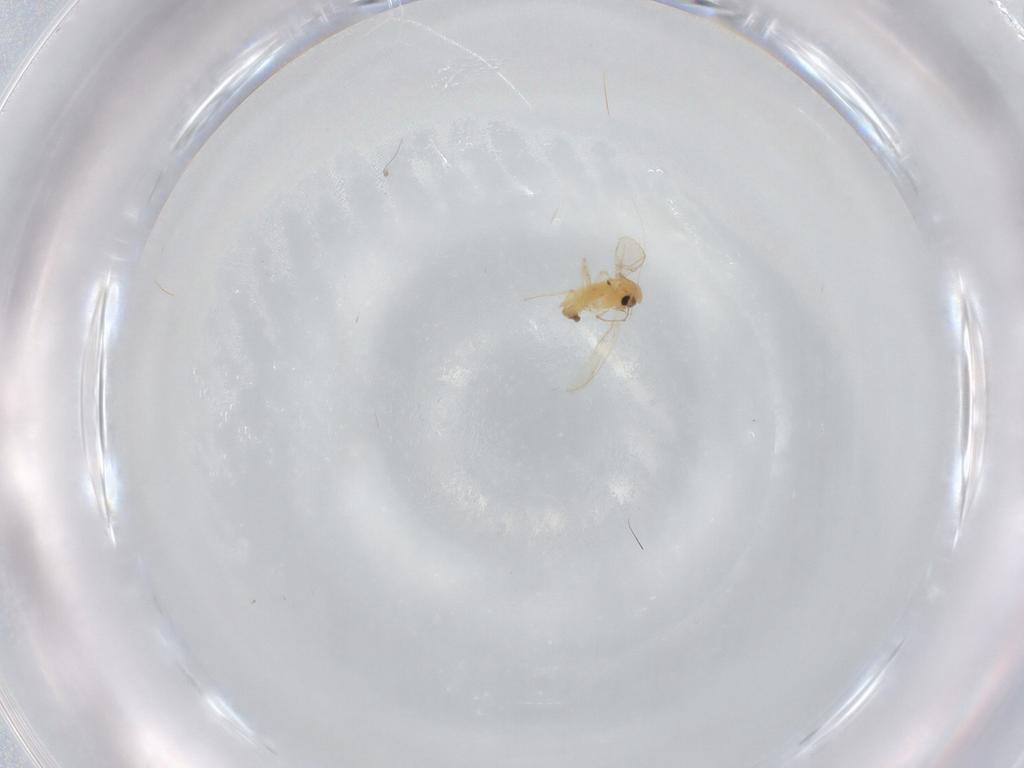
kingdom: Animalia
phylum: Arthropoda
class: Insecta
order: Diptera
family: Chironomidae
